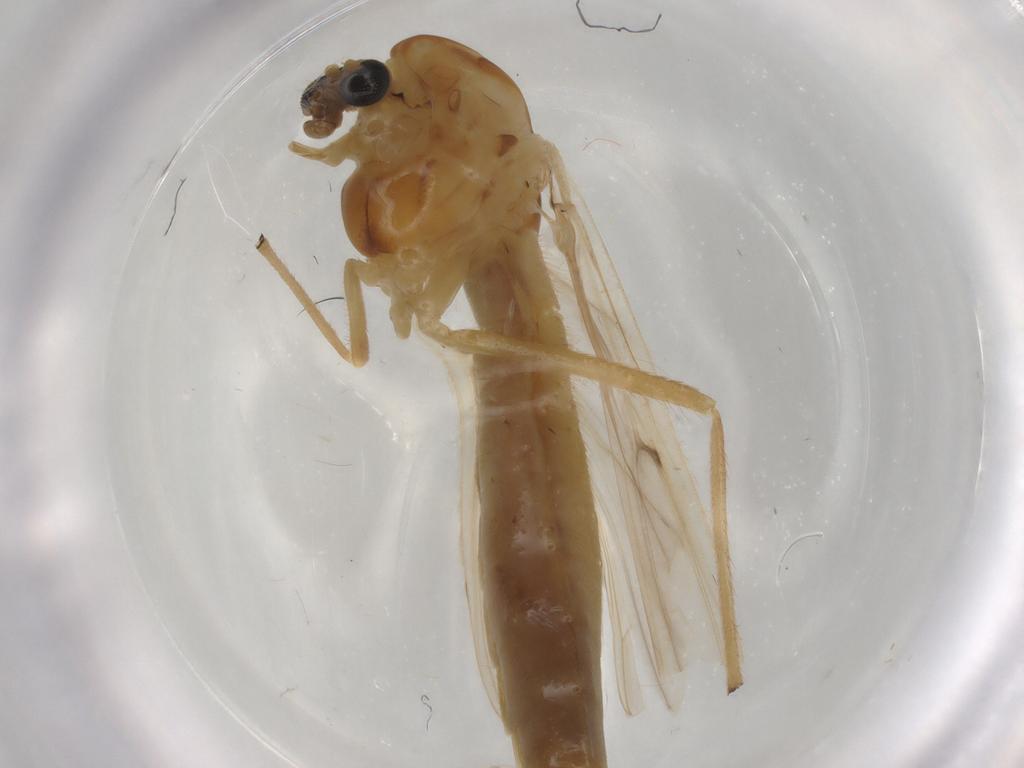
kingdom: Animalia
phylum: Arthropoda
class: Insecta
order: Diptera
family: Chironomidae
